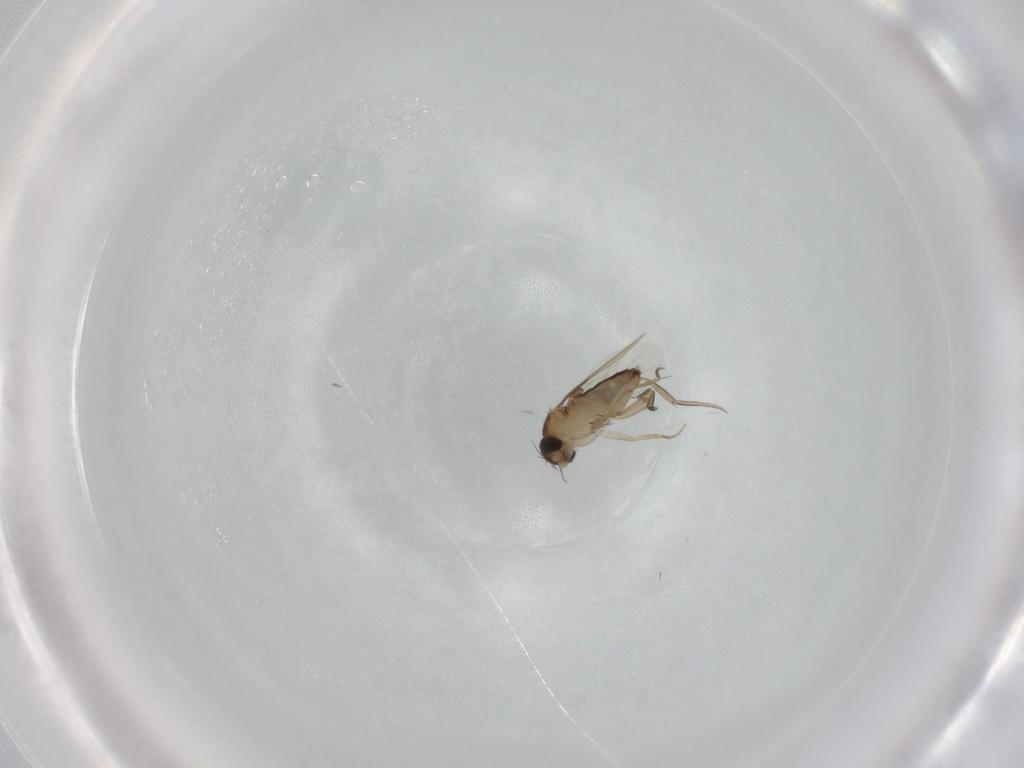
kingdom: Animalia
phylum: Arthropoda
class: Insecta
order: Diptera
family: Phoridae
